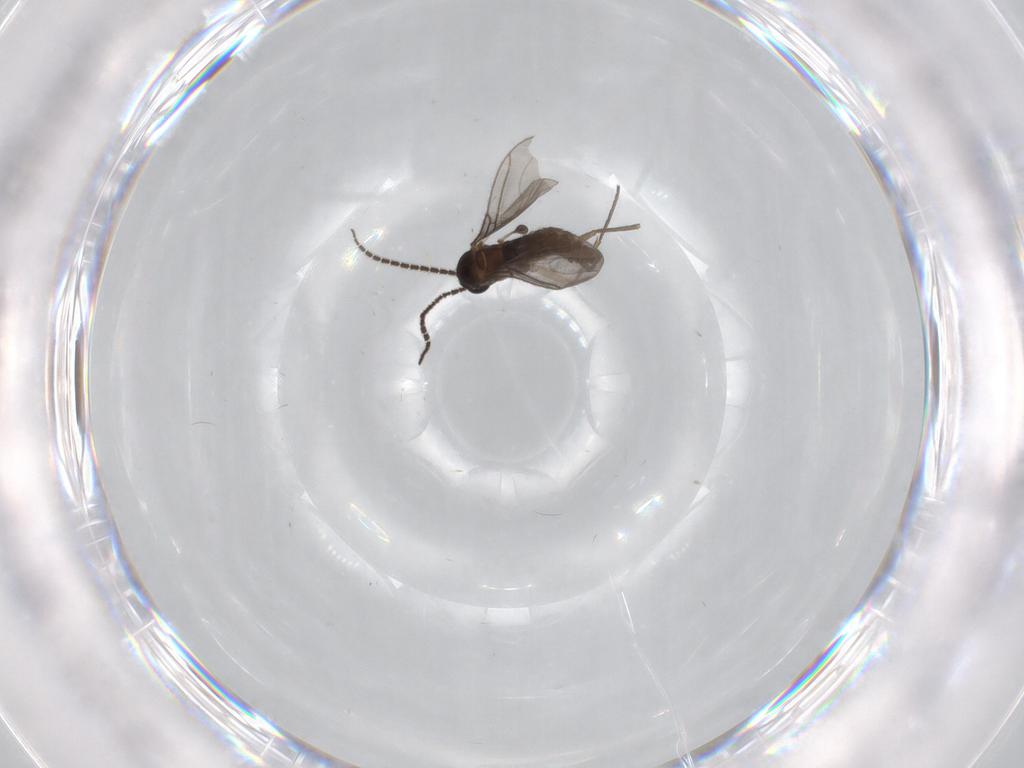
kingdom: Animalia
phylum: Arthropoda
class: Insecta
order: Diptera
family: Sciaridae
